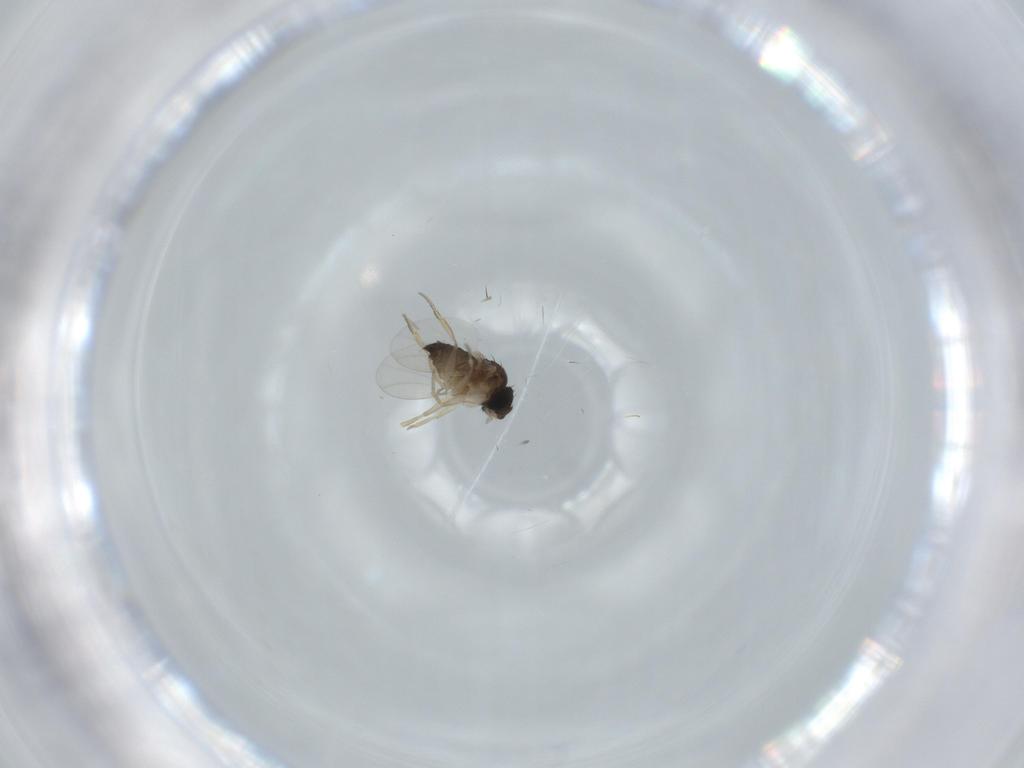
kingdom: Animalia
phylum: Arthropoda
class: Insecta
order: Diptera
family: Phoridae
